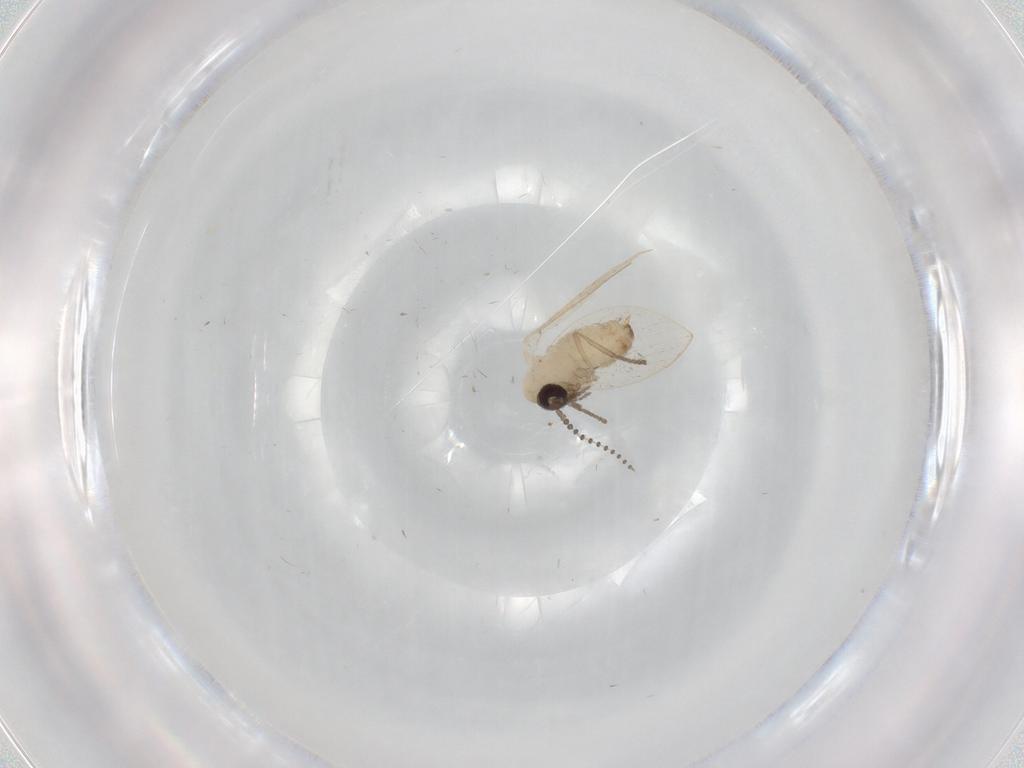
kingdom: Animalia
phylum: Arthropoda
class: Insecta
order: Diptera
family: Psychodidae
